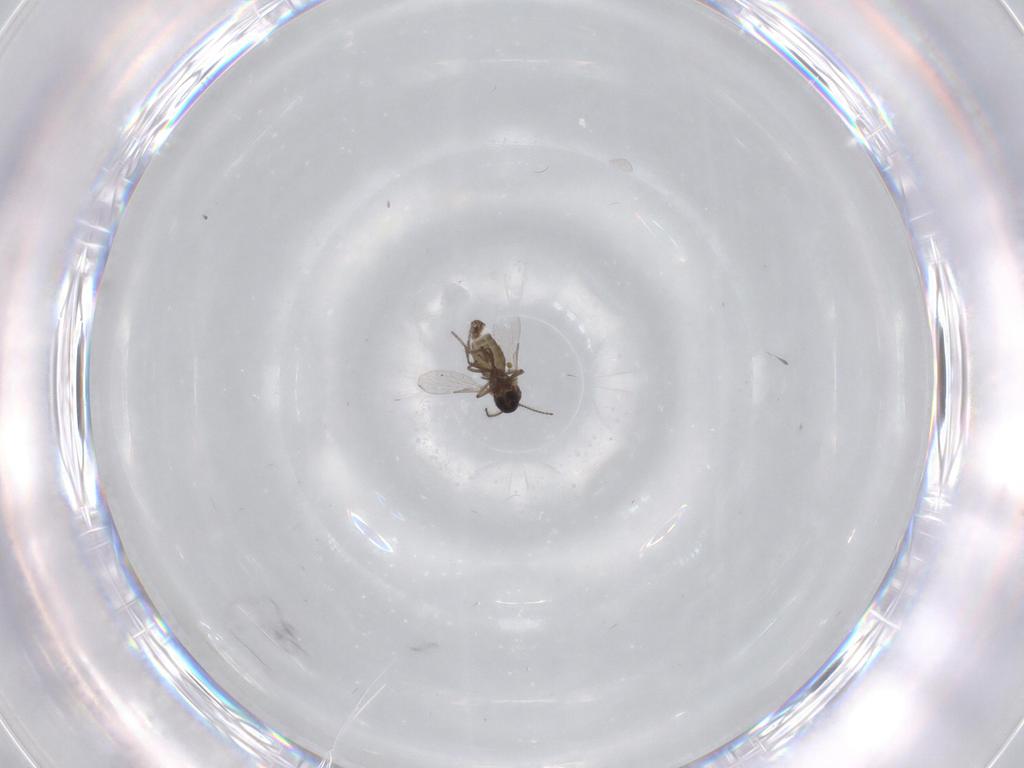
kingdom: Animalia
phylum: Arthropoda
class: Insecta
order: Diptera
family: Ceratopogonidae
